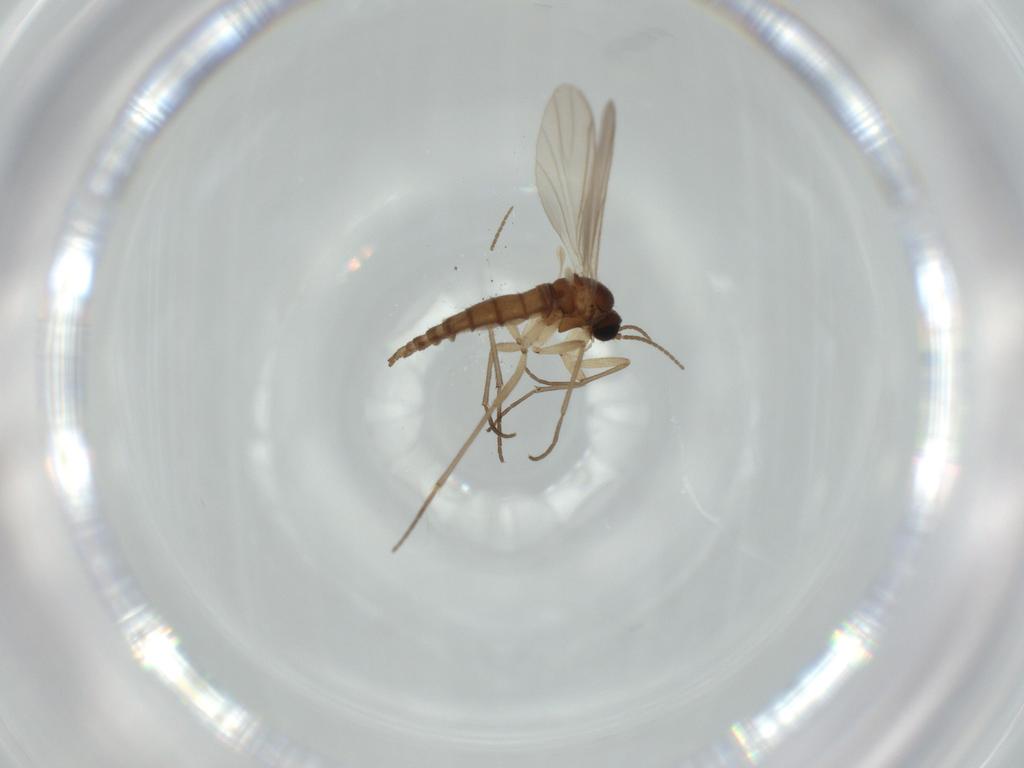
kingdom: Animalia
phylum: Arthropoda
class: Insecta
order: Diptera
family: Sciaridae
